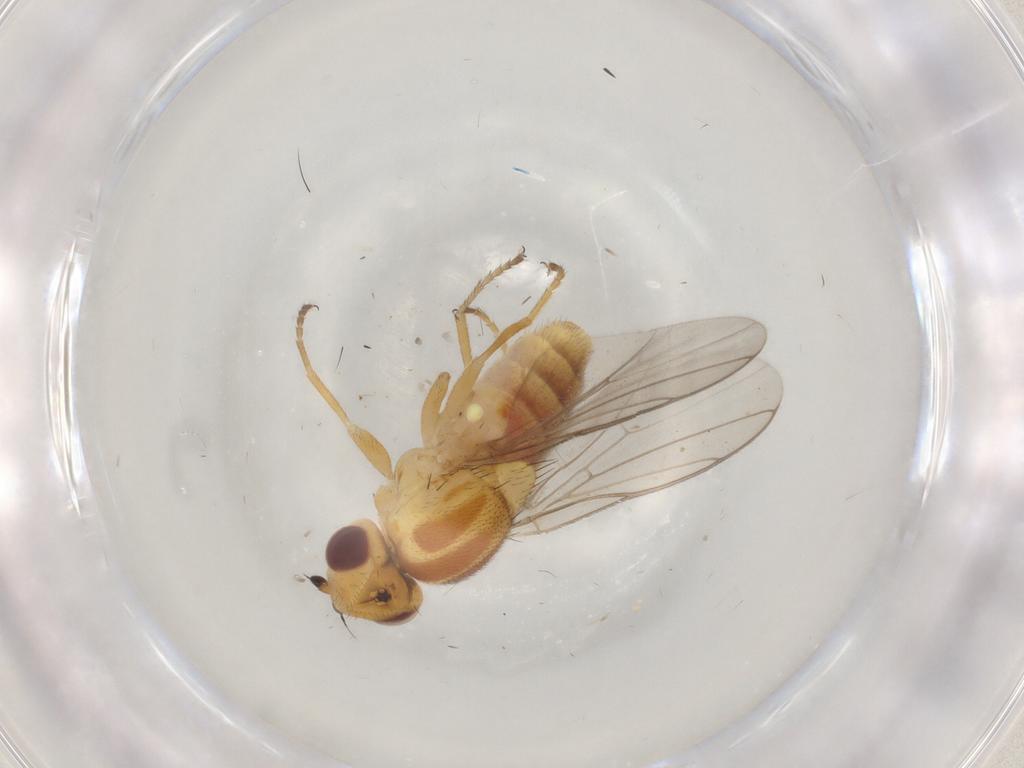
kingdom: Animalia
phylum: Arthropoda
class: Insecta
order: Diptera
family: Chloropidae
